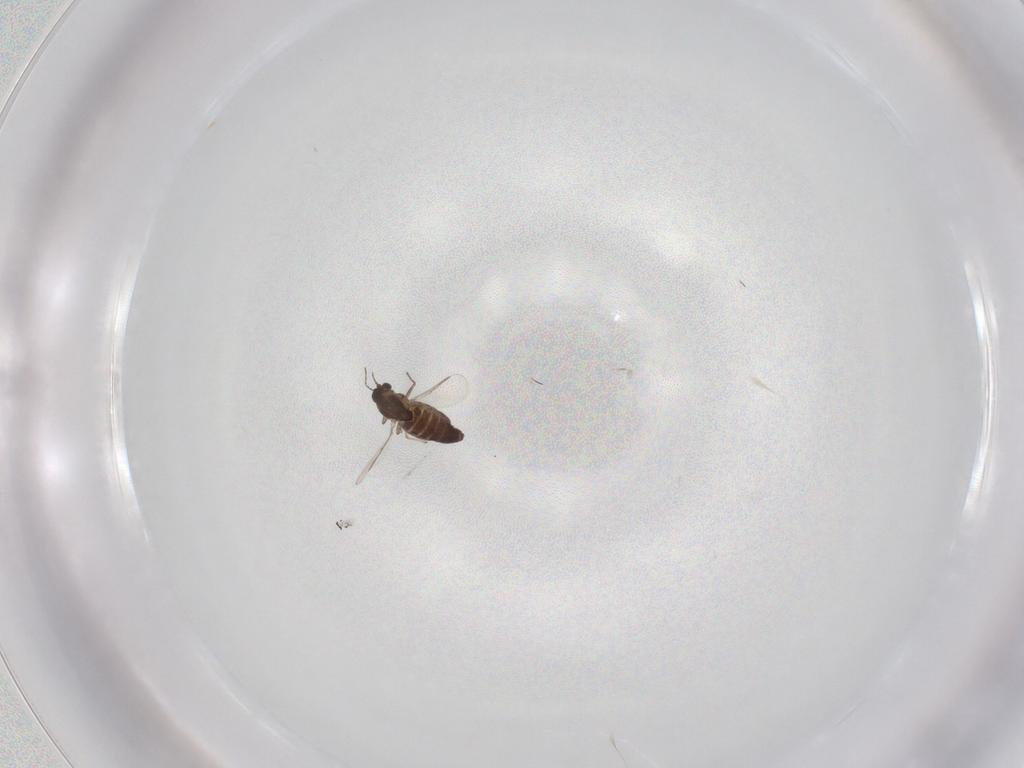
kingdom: Animalia
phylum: Arthropoda
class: Insecta
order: Diptera
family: Chironomidae
